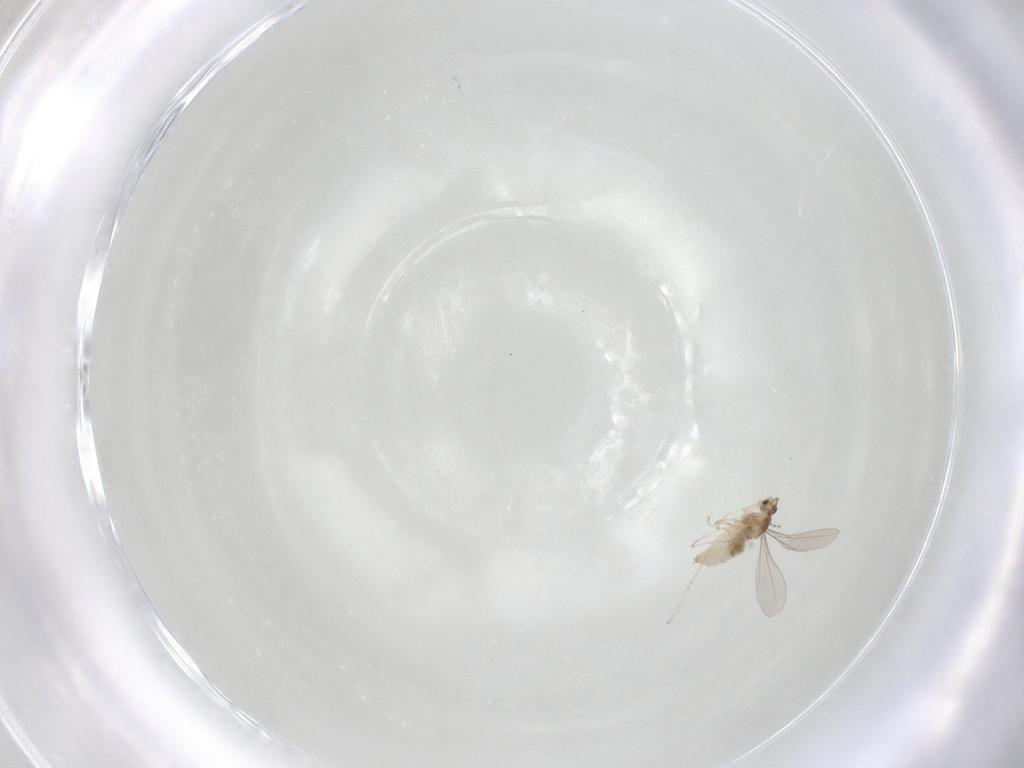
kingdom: Animalia
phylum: Arthropoda
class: Insecta
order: Diptera
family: Cecidomyiidae
